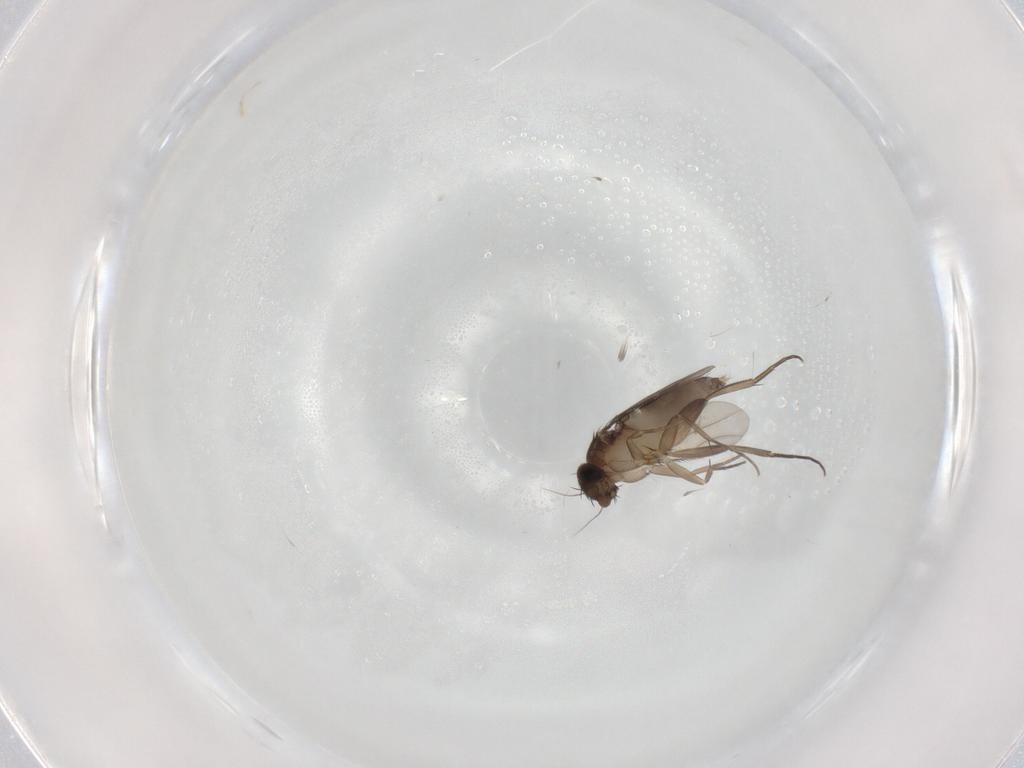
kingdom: Animalia
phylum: Arthropoda
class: Insecta
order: Diptera
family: Phoridae
